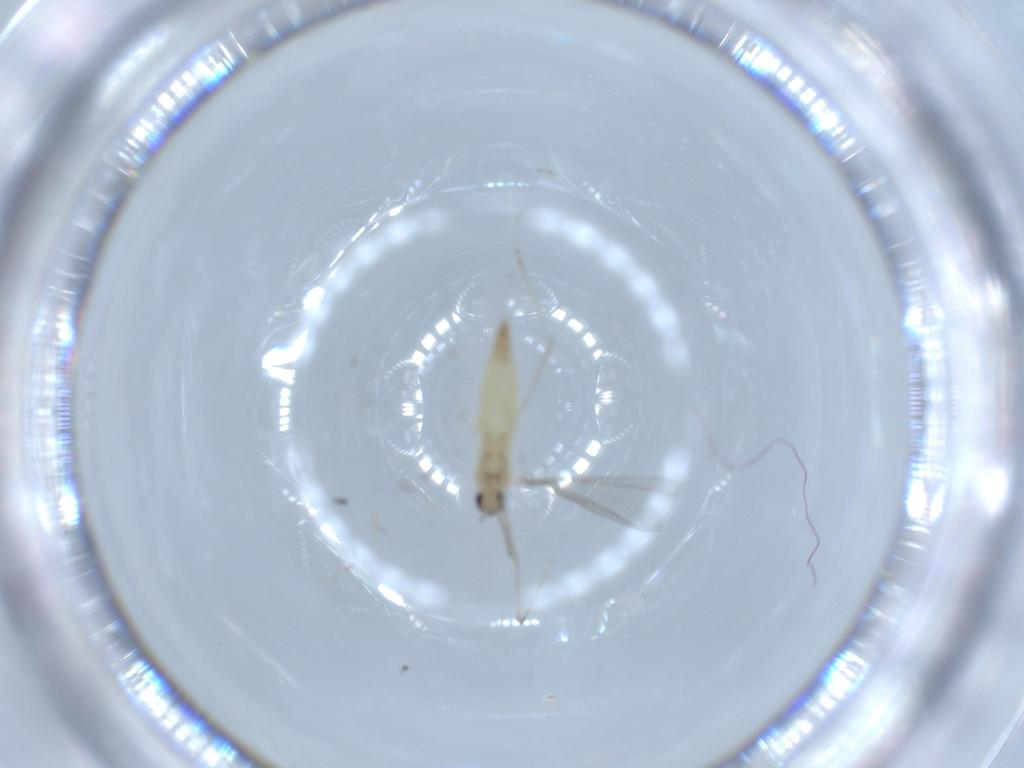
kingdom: Animalia
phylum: Arthropoda
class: Insecta
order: Diptera
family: Cecidomyiidae
